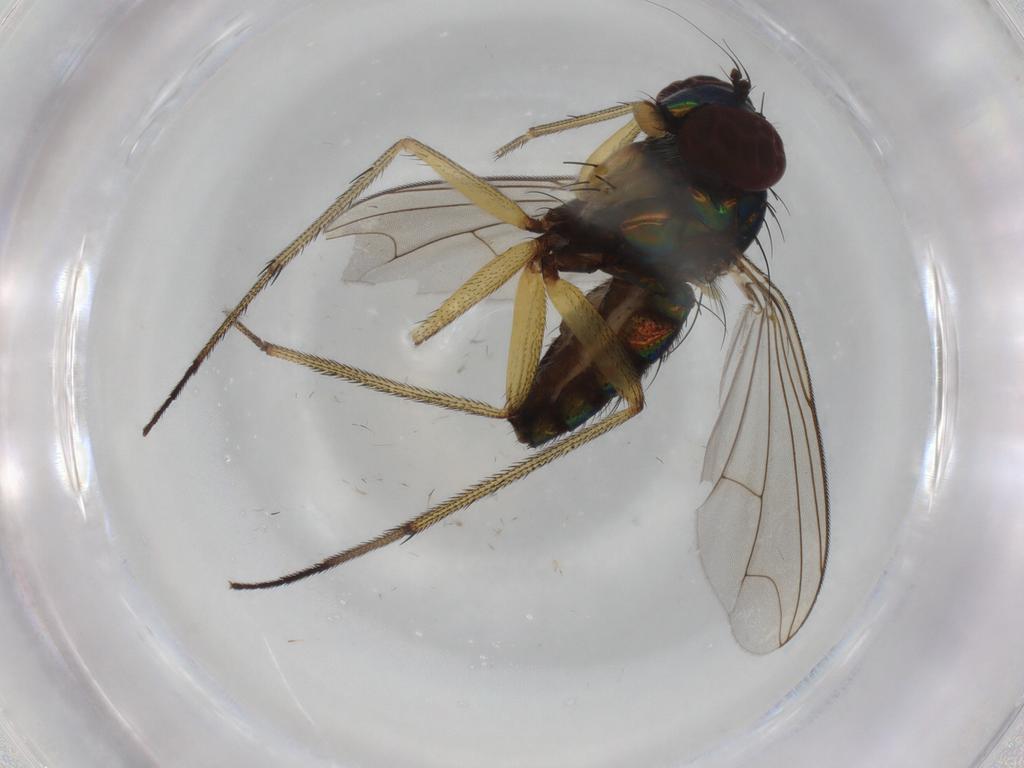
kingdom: Animalia
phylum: Arthropoda
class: Insecta
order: Diptera
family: Dolichopodidae
